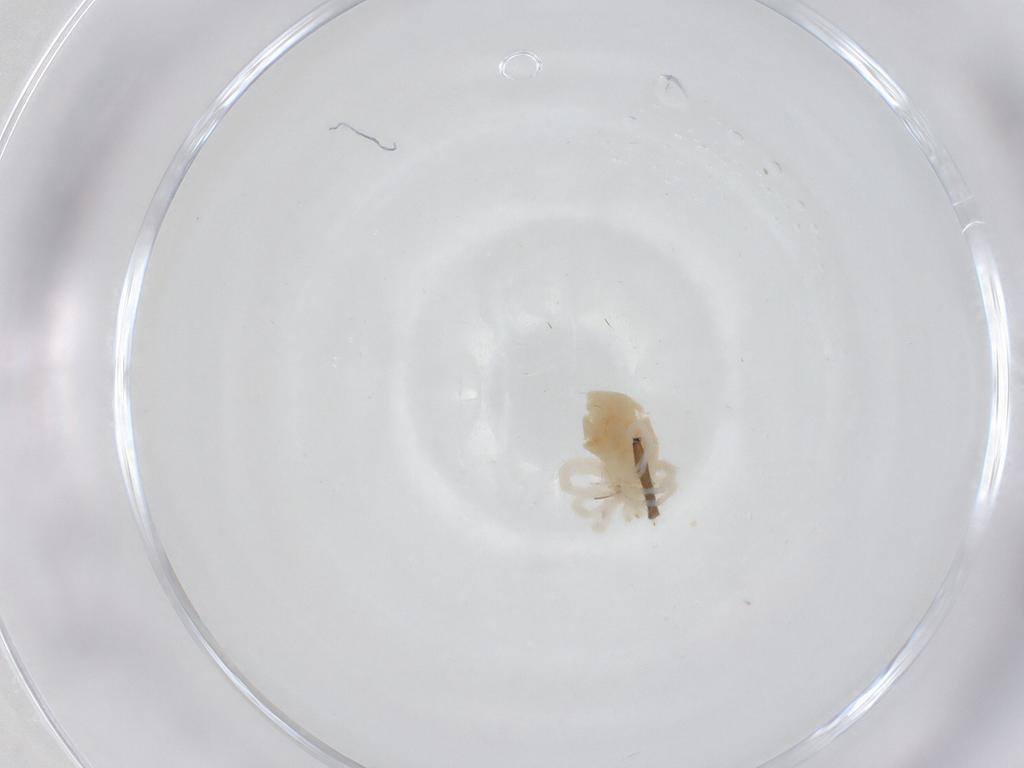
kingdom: Animalia
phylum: Arthropoda
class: Arachnida
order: Trombidiformes
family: Anystidae
